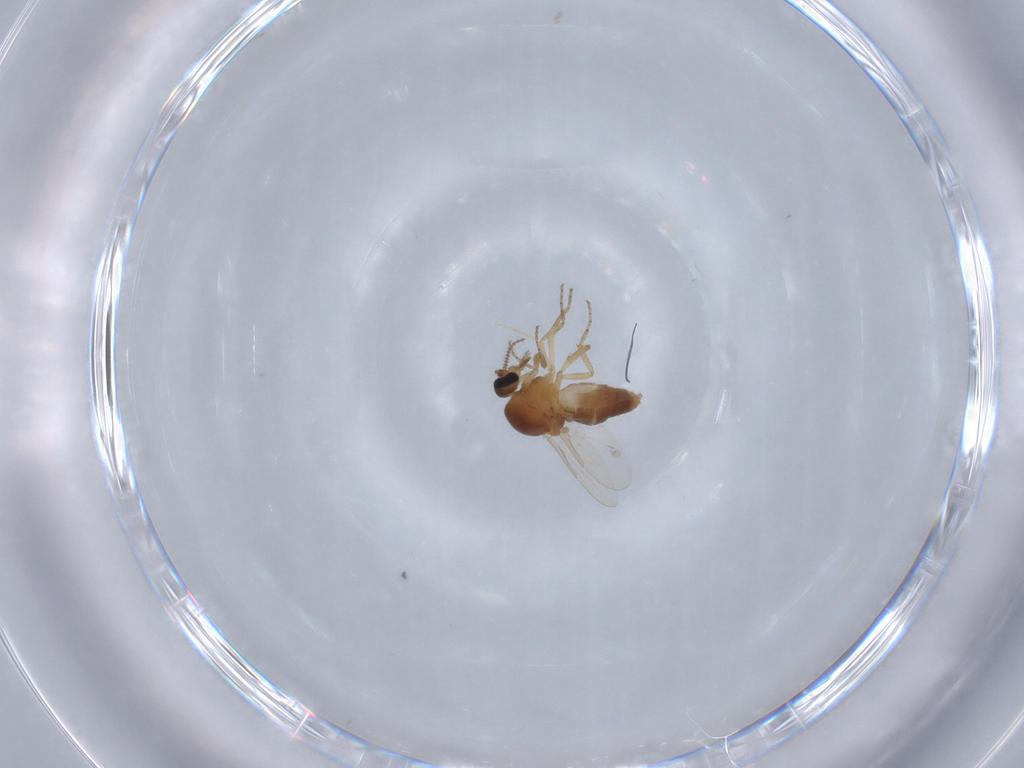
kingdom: Animalia
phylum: Arthropoda
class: Insecta
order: Diptera
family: Ceratopogonidae
